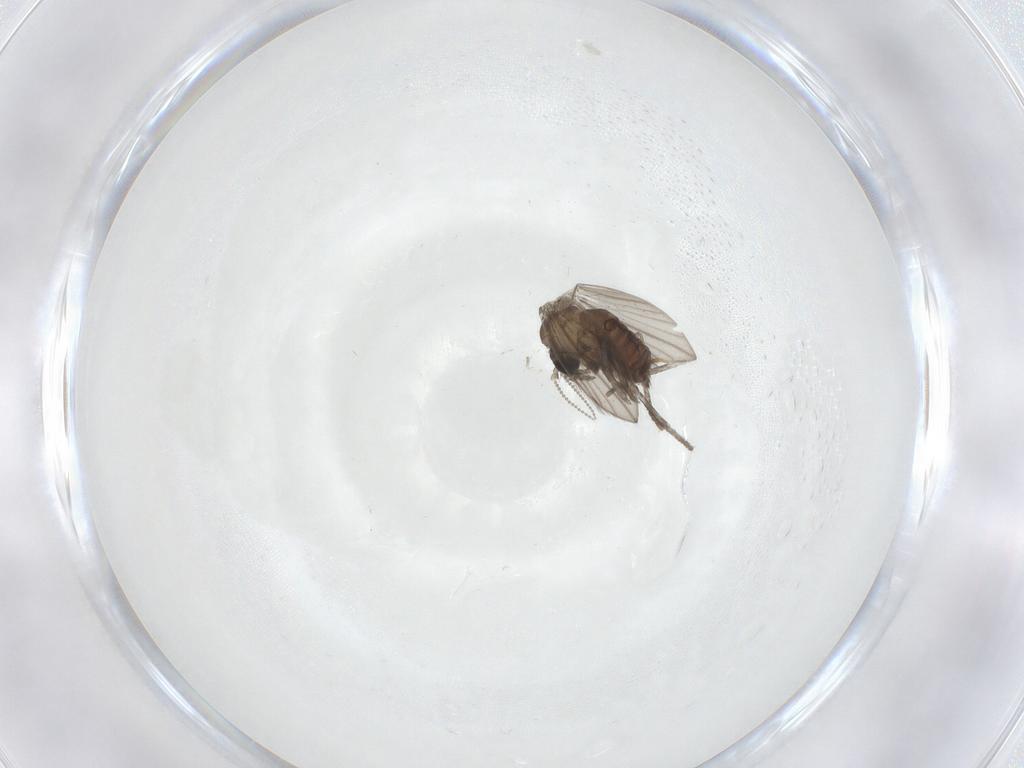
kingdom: Animalia
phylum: Arthropoda
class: Insecta
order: Diptera
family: Psychodidae
